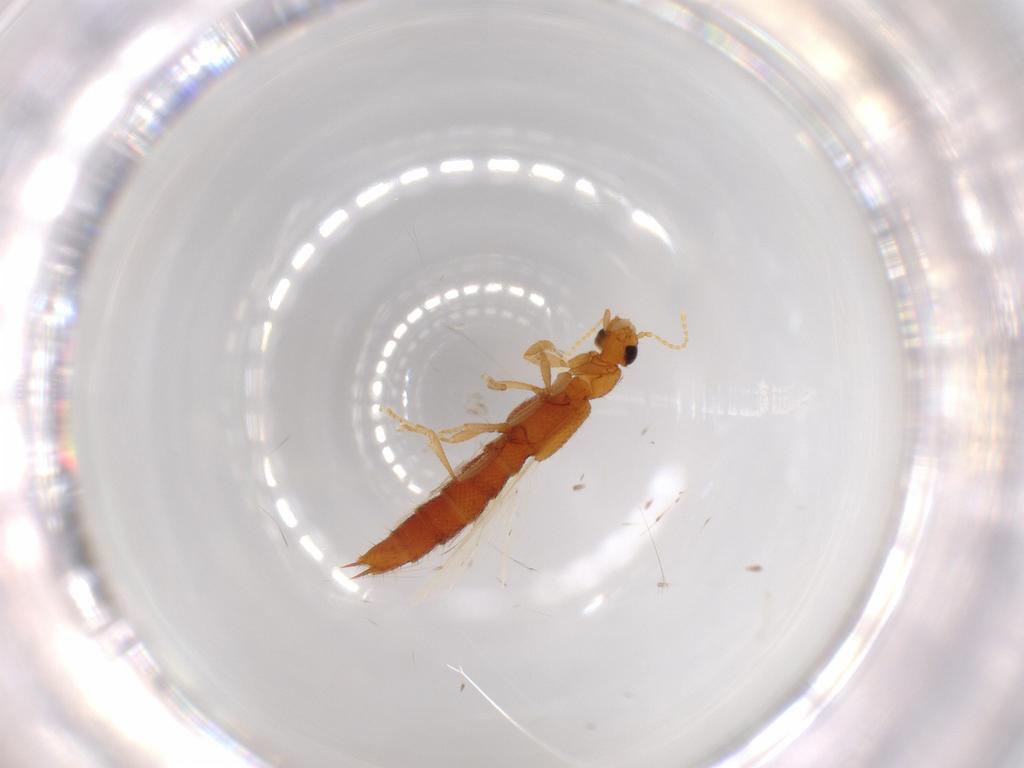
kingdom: Animalia
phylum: Arthropoda
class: Insecta
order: Coleoptera
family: Staphylinidae
